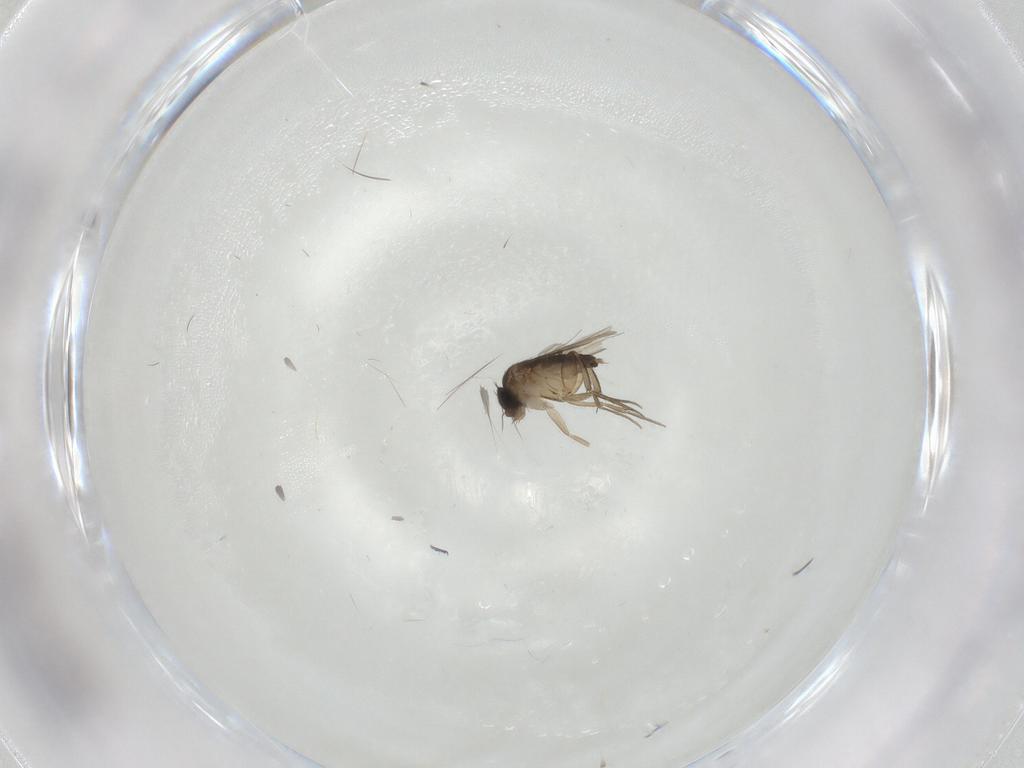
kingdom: Animalia
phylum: Arthropoda
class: Insecta
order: Diptera
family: Phoridae
